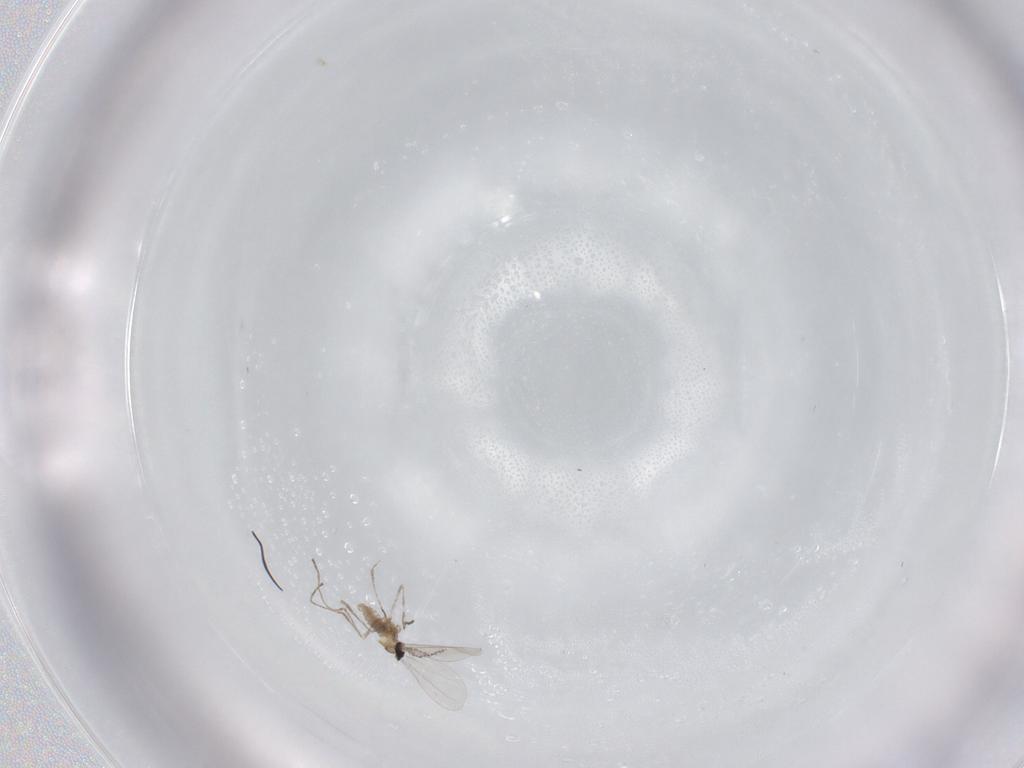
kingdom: Animalia
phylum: Arthropoda
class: Insecta
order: Diptera
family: Cecidomyiidae
